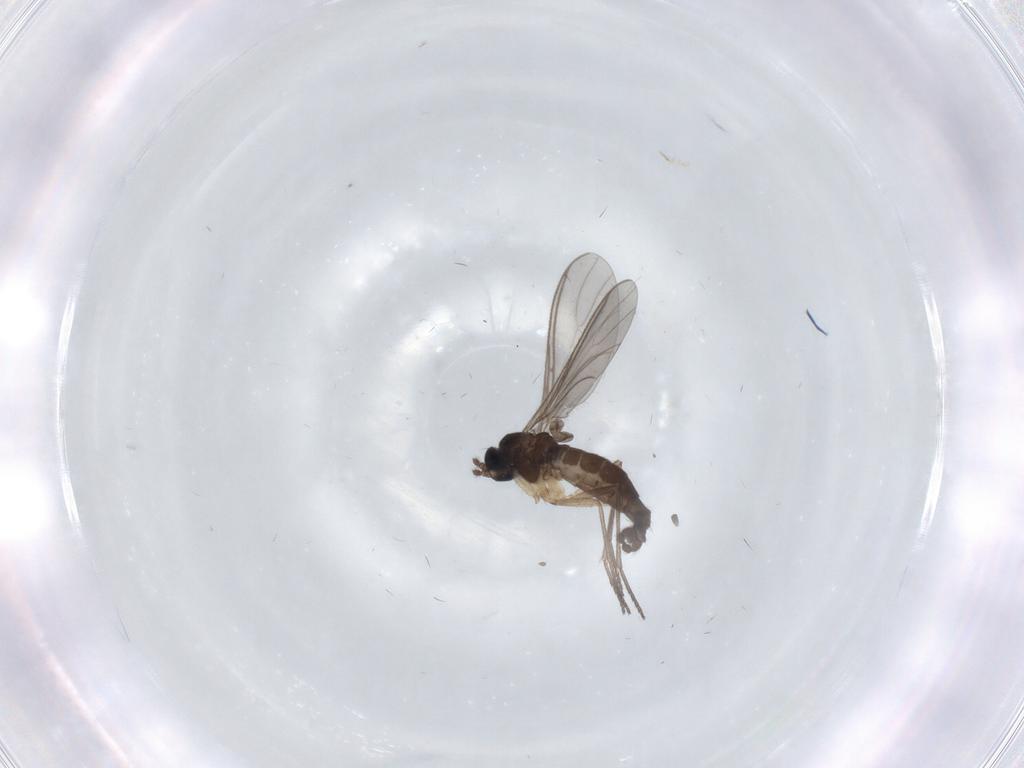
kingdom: Animalia
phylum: Arthropoda
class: Insecta
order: Diptera
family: Sciaridae
